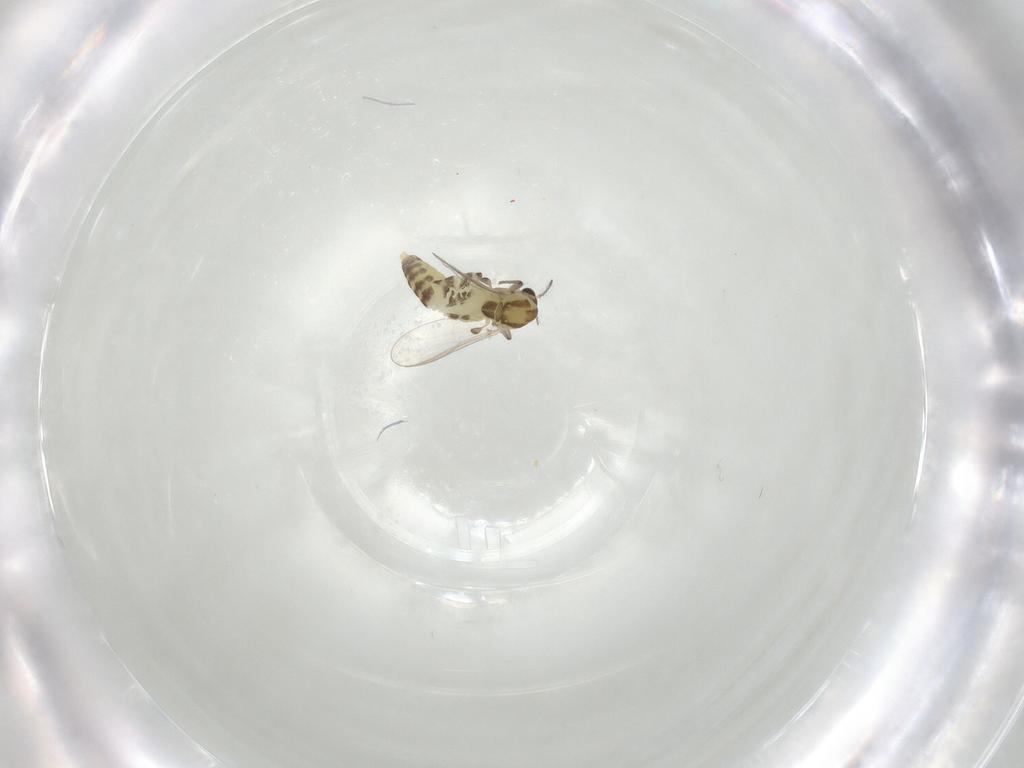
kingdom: Animalia
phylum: Arthropoda
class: Insecta
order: Diptera
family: Chironomidae
